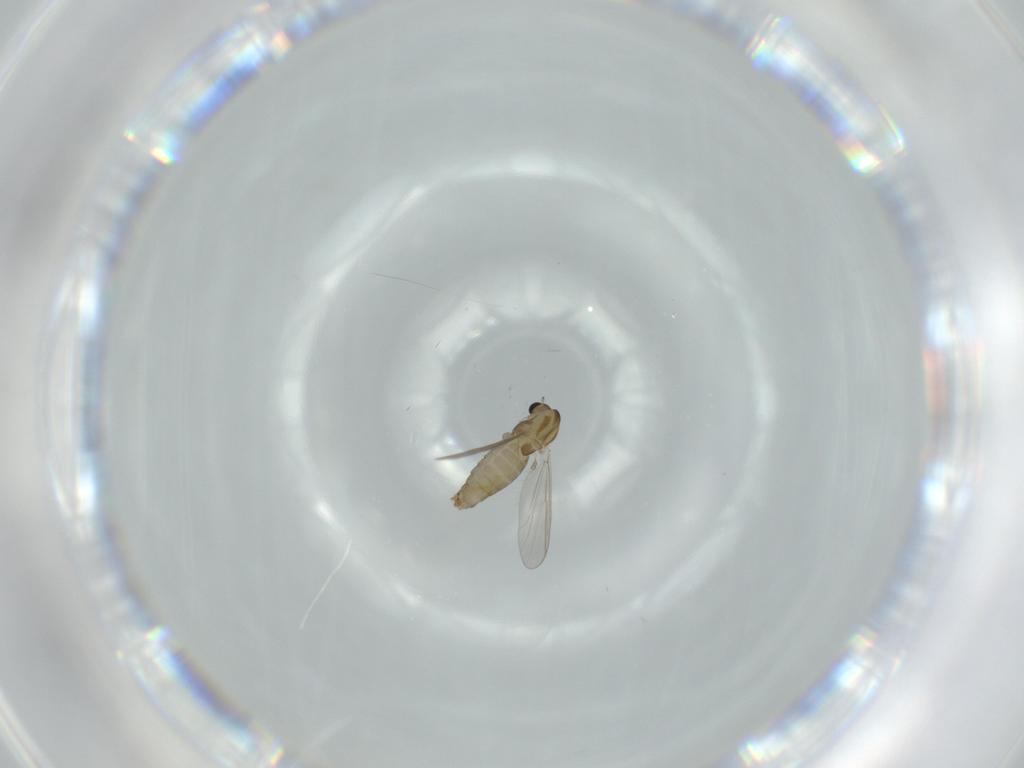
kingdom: Animalia
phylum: Arthropoda
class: Insecta
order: Diptera
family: Chironomidae
